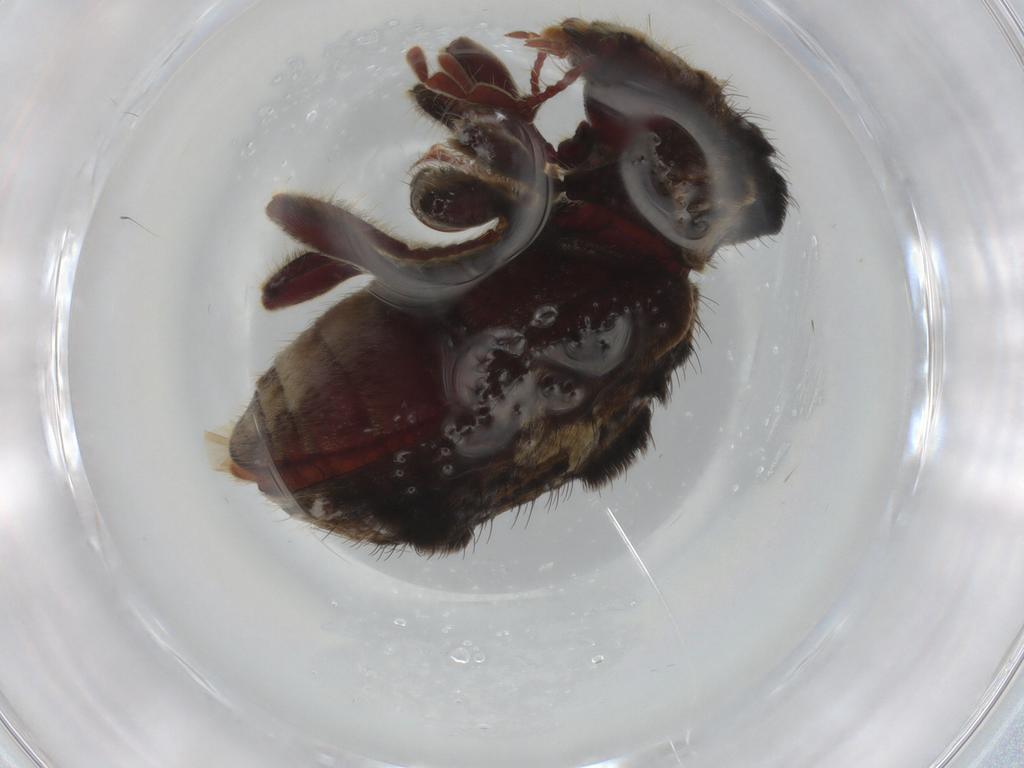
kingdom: Animalia
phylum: Arthropoda
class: Insecta
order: Coleoptera
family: Ptinidae
